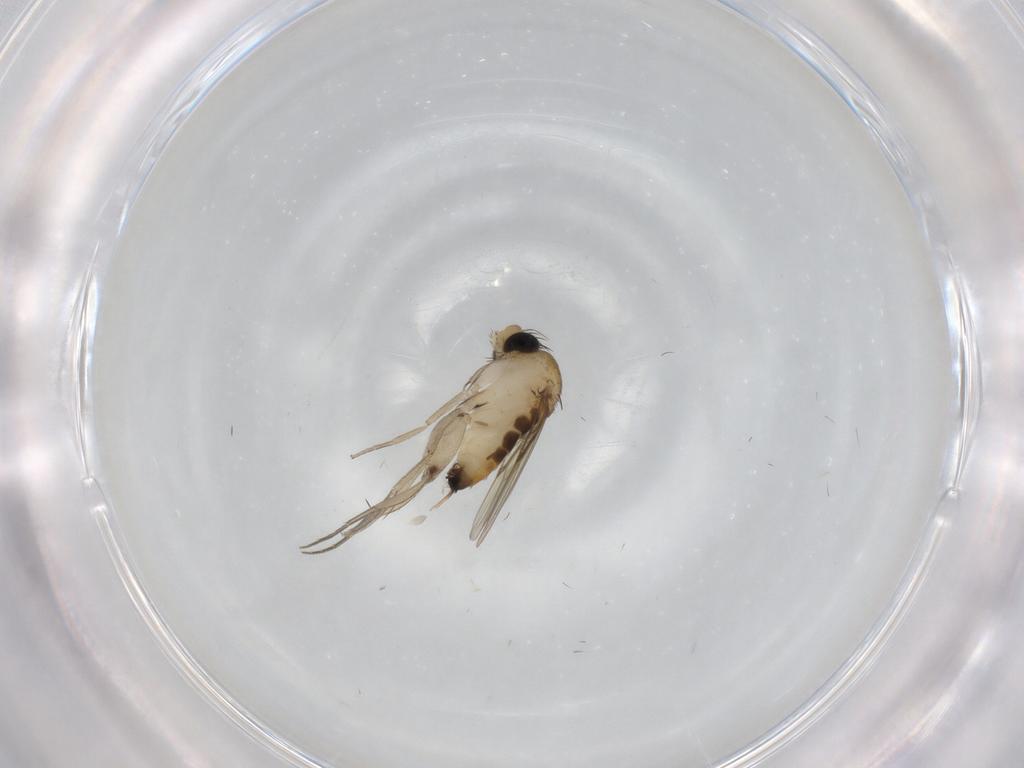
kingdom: Animalia
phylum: Arthropoda
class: Insecta
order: Diptera
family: Phoridae
